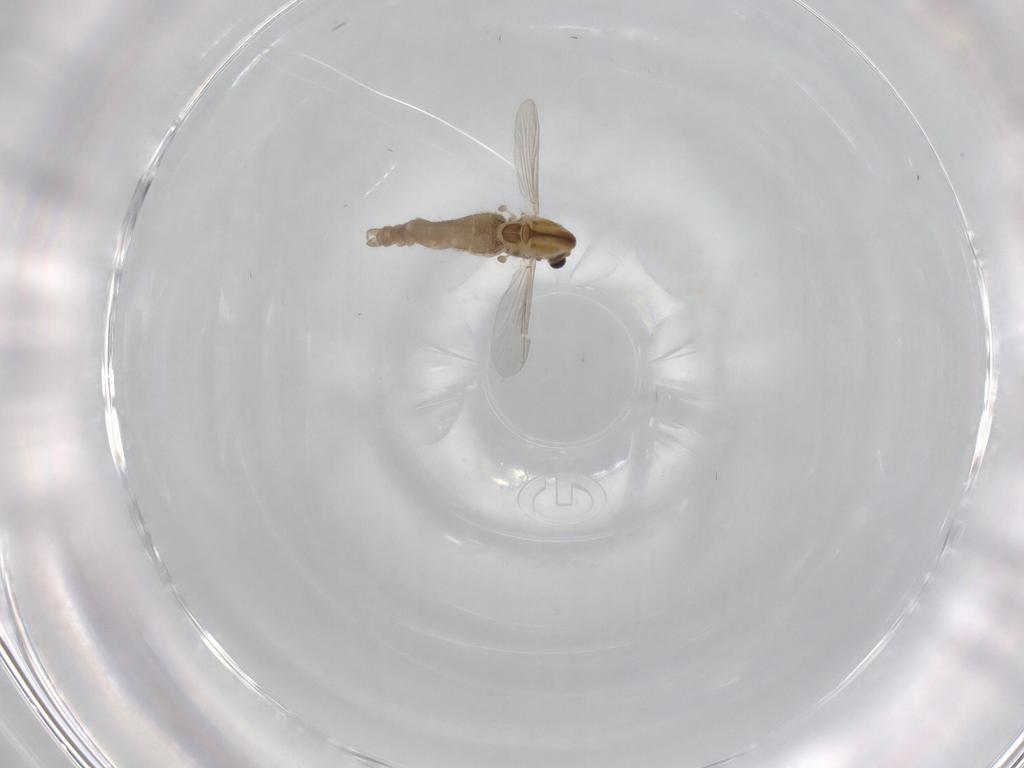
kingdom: Animalia
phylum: Arthropoda
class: Insecta
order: Diptera
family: Chironomidae
